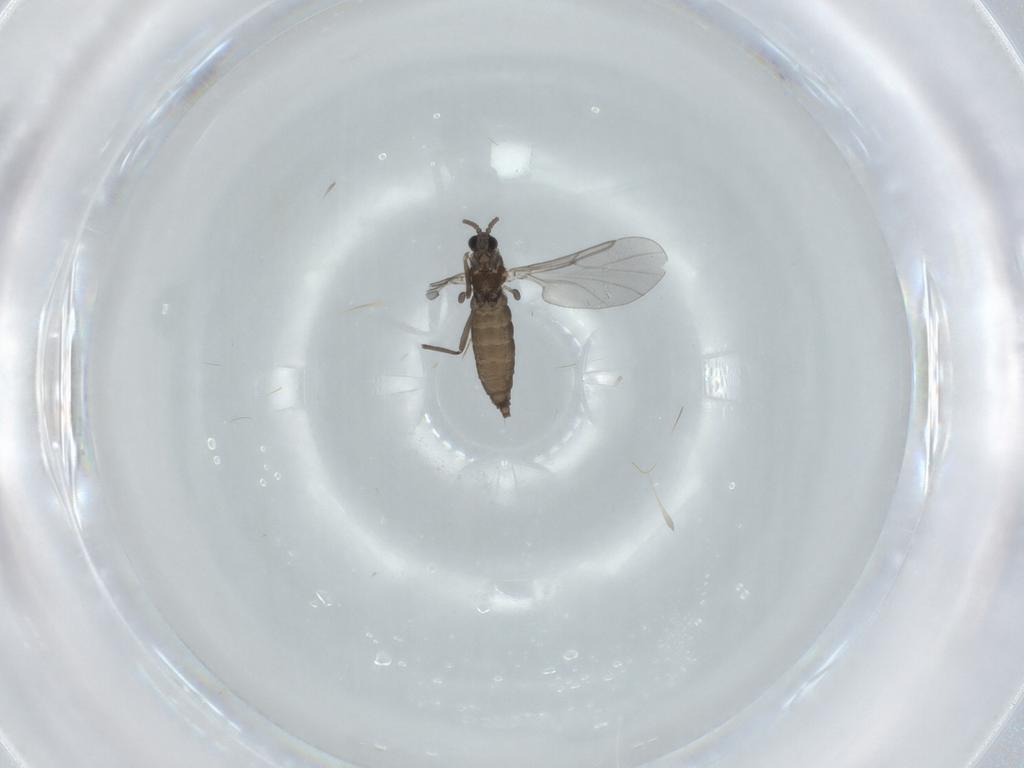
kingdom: Animalia
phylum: Arthropoda
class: Insecta
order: Diptera
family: Cecidomyiidae
